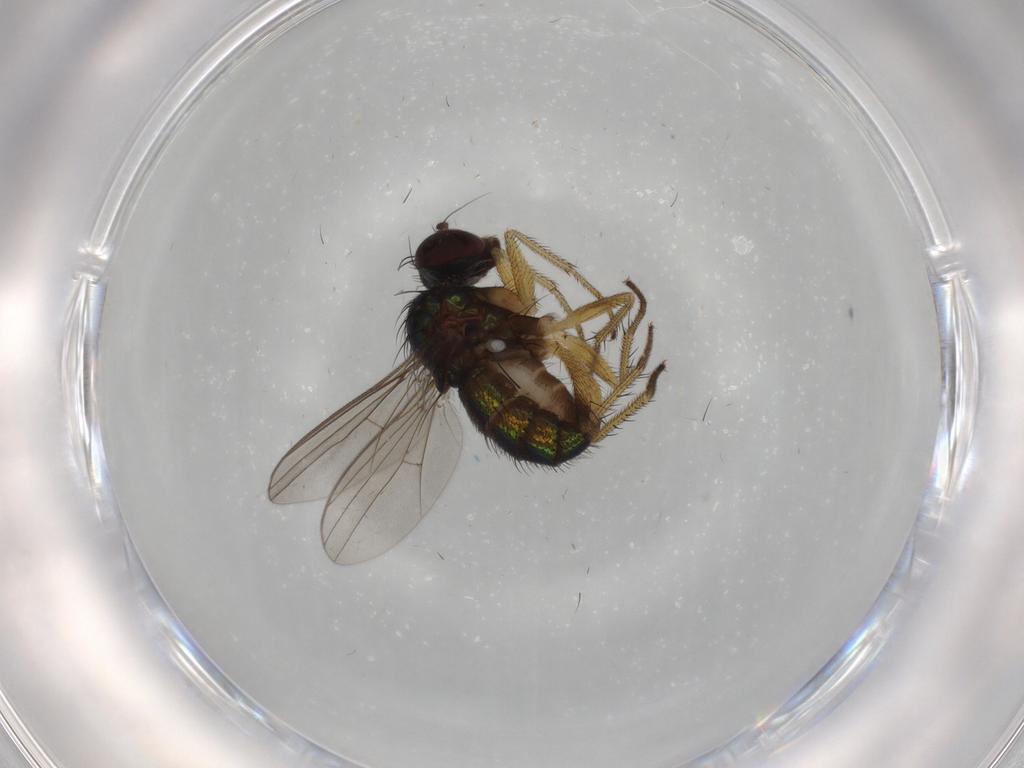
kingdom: Animalia
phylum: Arthropoda
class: Insecta
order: Diptera
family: Dolichopodidae
